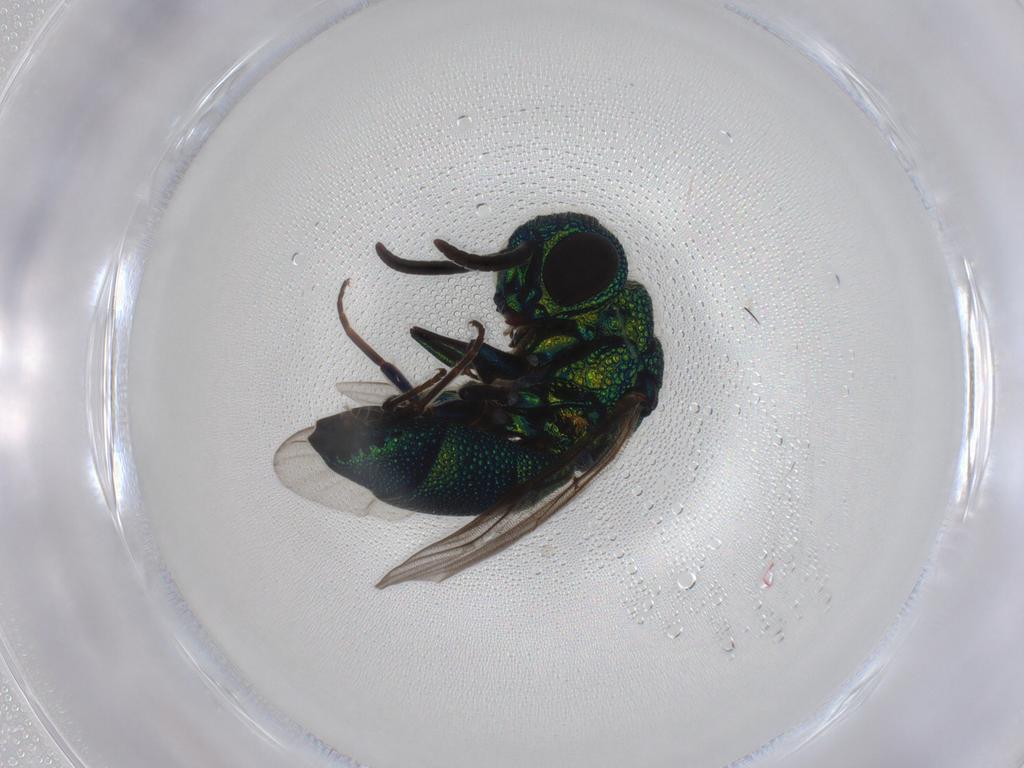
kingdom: Animalia
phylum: Arthropoda
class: Insecta
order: Hymenoptera
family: Chrysididae
